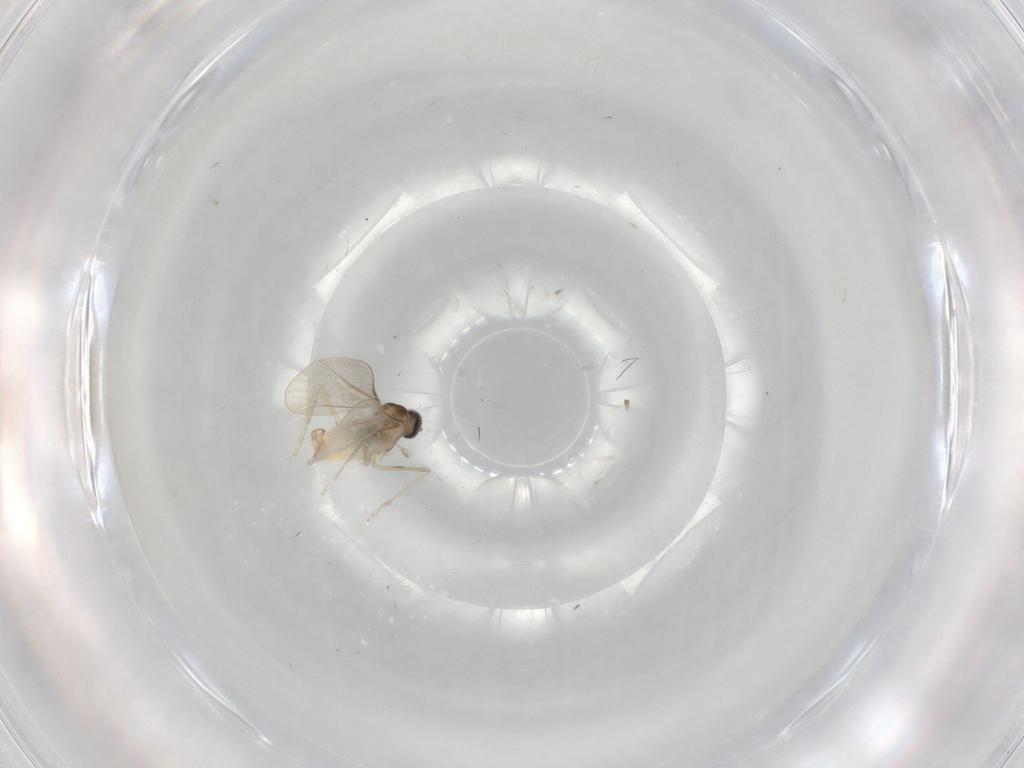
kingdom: Animalia
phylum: Arthropoda
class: Insecta
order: Diptera
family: Cecidomyiidae
